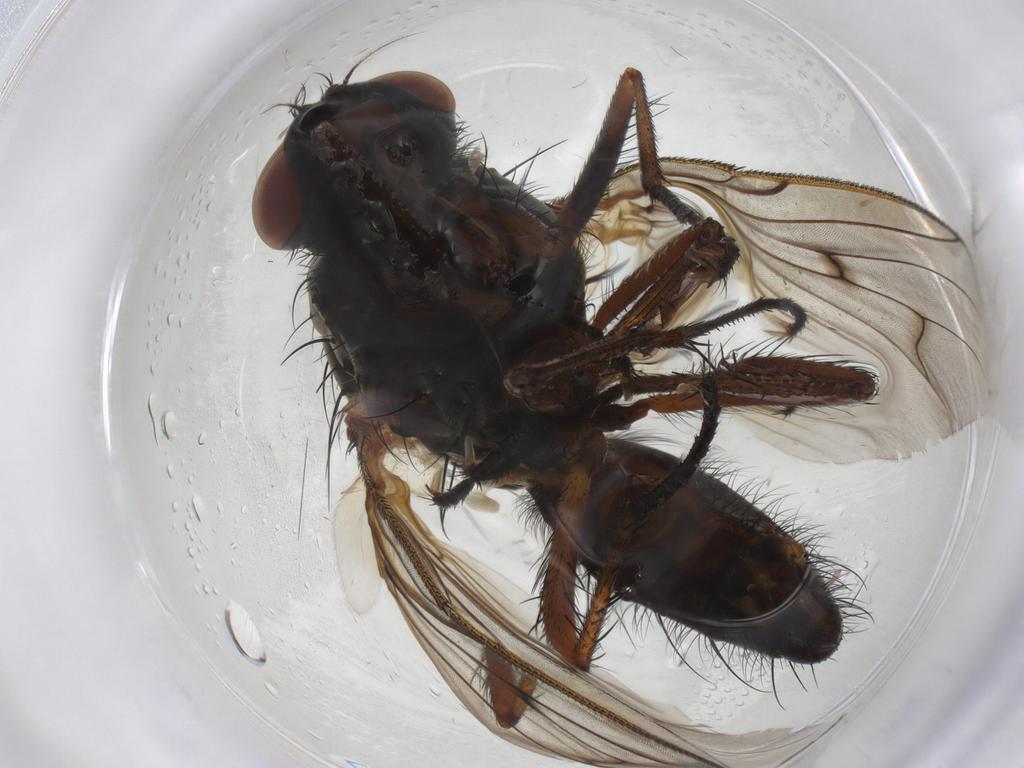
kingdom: Animalia
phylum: Arthropoda
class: Insecta
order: Diptera
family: Anthomyiidae
